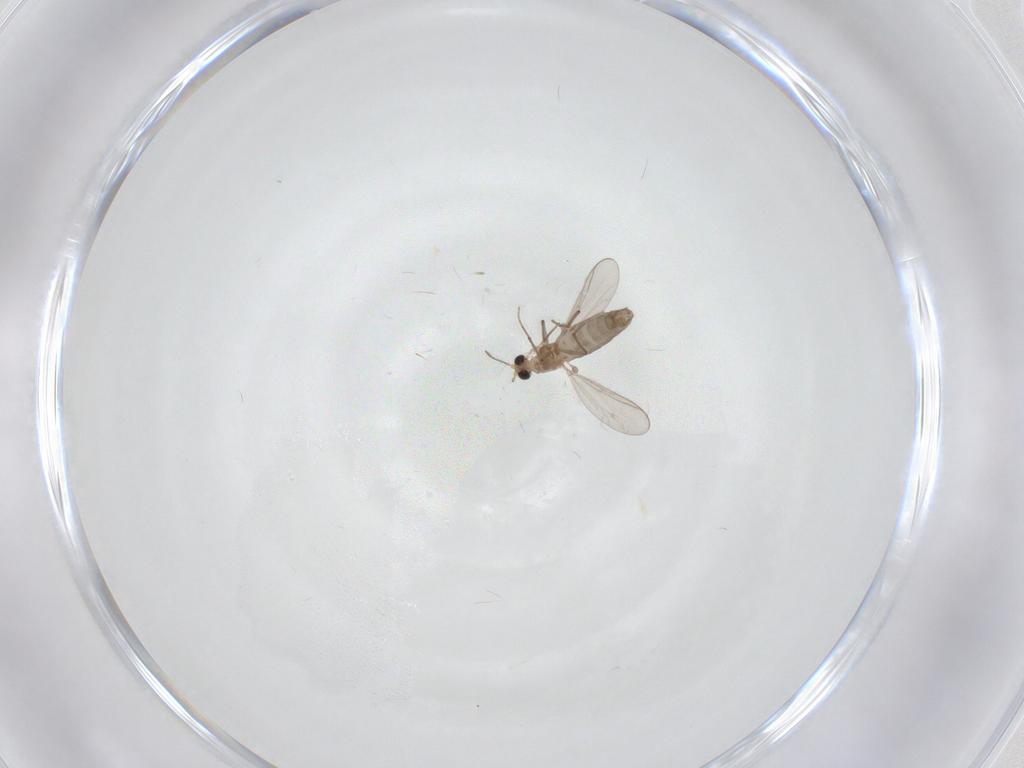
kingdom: Animalia
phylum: Arthropoda
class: Insecta
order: Diptera
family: Chironomidae
